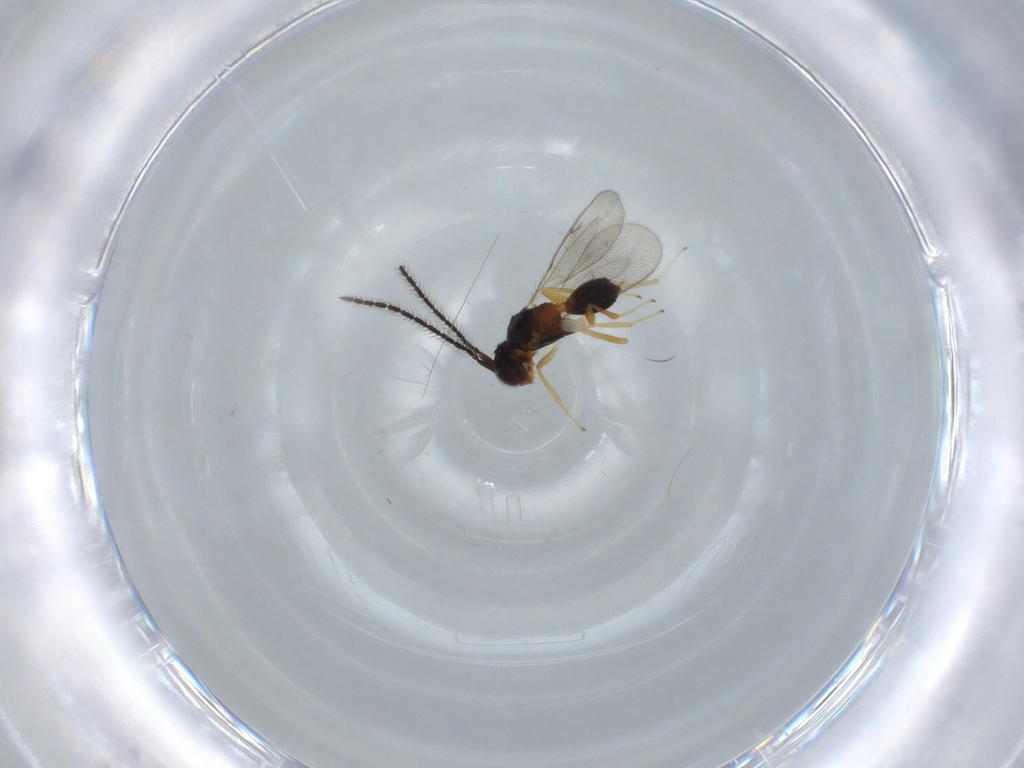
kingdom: Animalia
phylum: Arthropoda
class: Insecta
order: Hymenoptera
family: Diparidae
